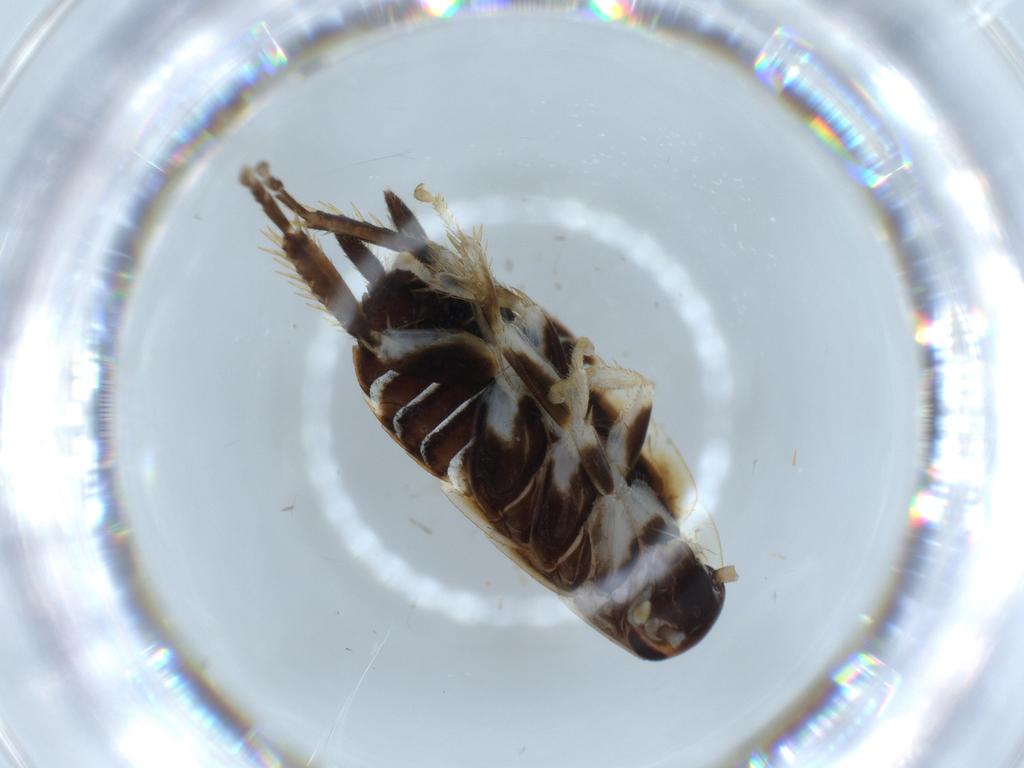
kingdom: Animalia
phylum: Arthropoda
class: Insecta
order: Blattodea
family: Ectobiidae
